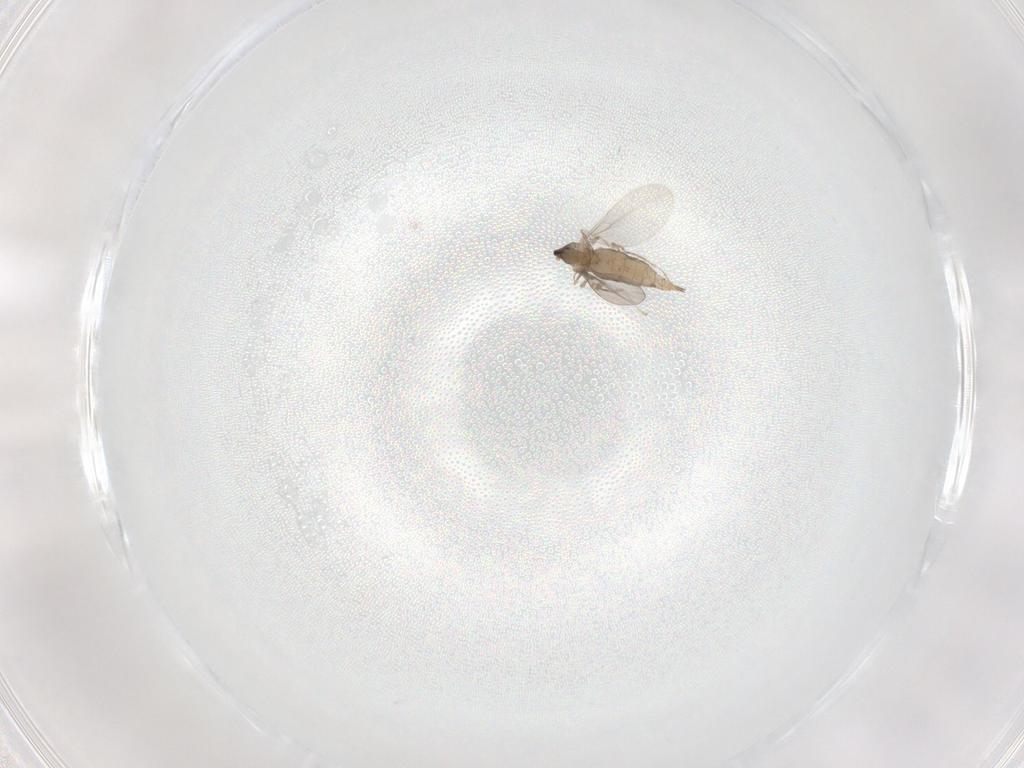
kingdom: Animalia
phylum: Arthropoda
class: Insecta
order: Diptera
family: Cecidomyiidae
